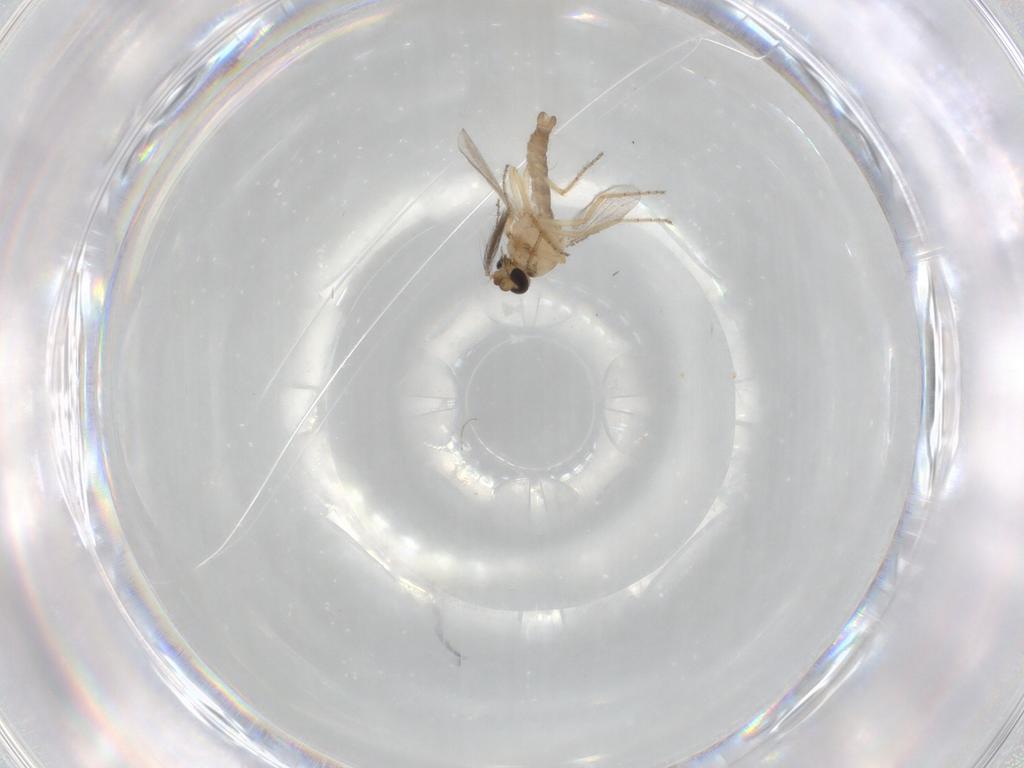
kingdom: Animalia
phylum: Arthropoda
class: Insecta
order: Diptera
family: Ceratopogonidae
